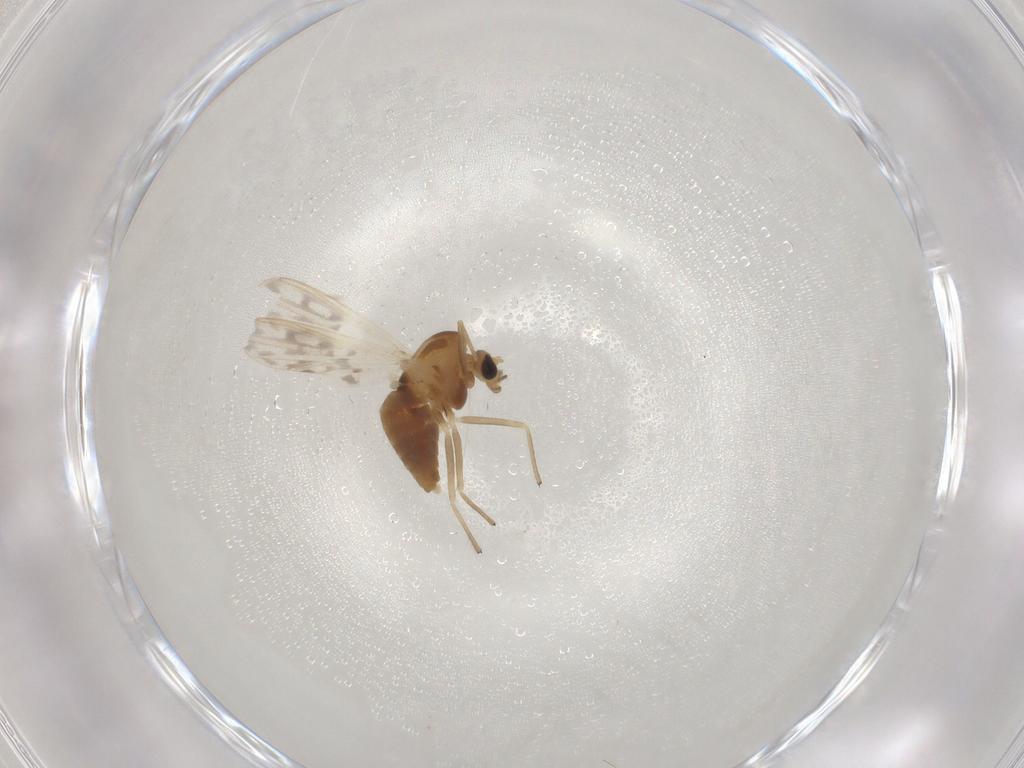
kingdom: Animalia
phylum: Arthropoda
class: Insecta
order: Diptera
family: Chironomidae
